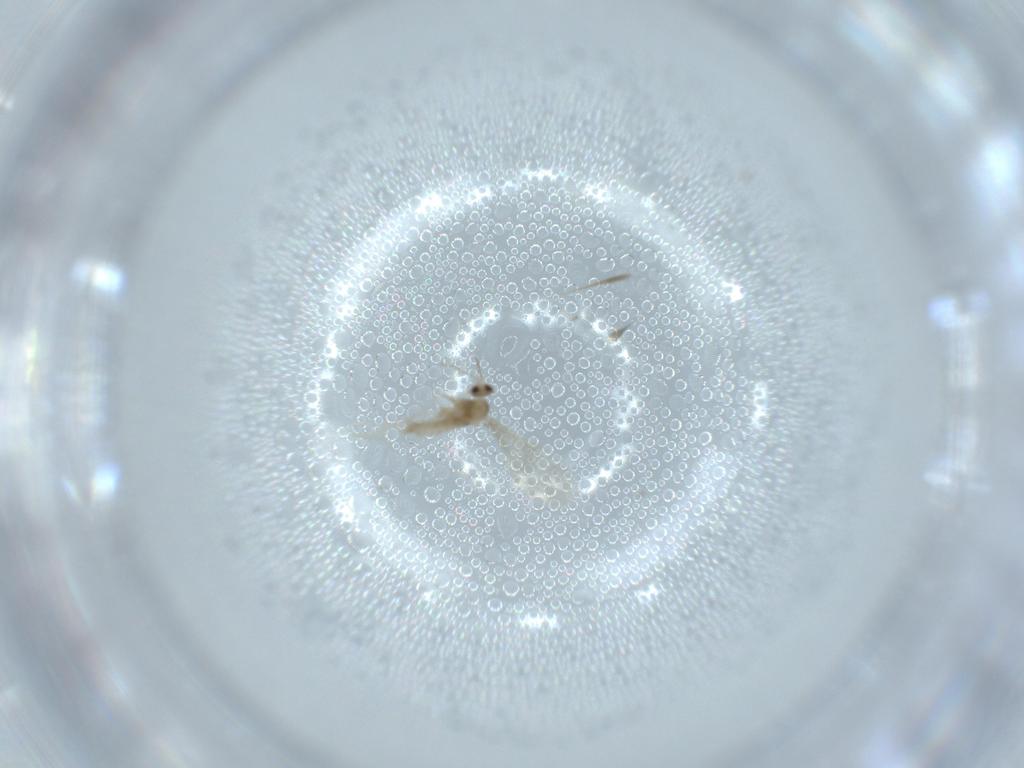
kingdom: Animalia
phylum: Arthropoda
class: Insecta
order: Diptera
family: Cecidomyiidae
